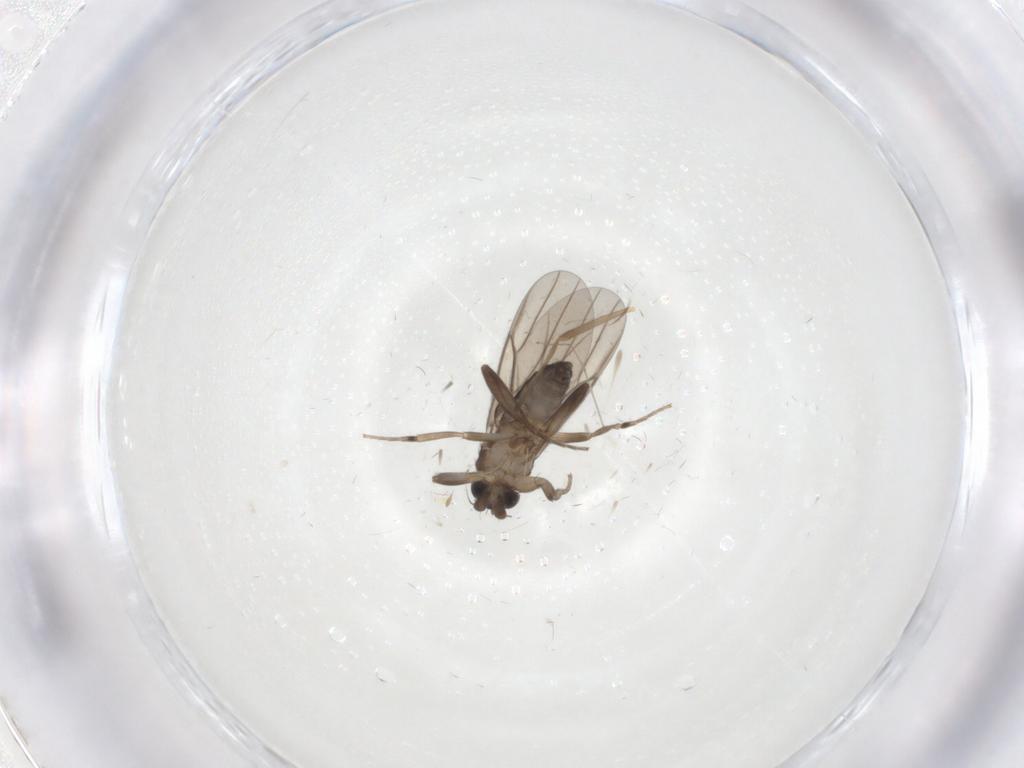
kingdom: Animalia
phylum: Arthropoda
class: Insecta
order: Diptera
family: Chironomidae
